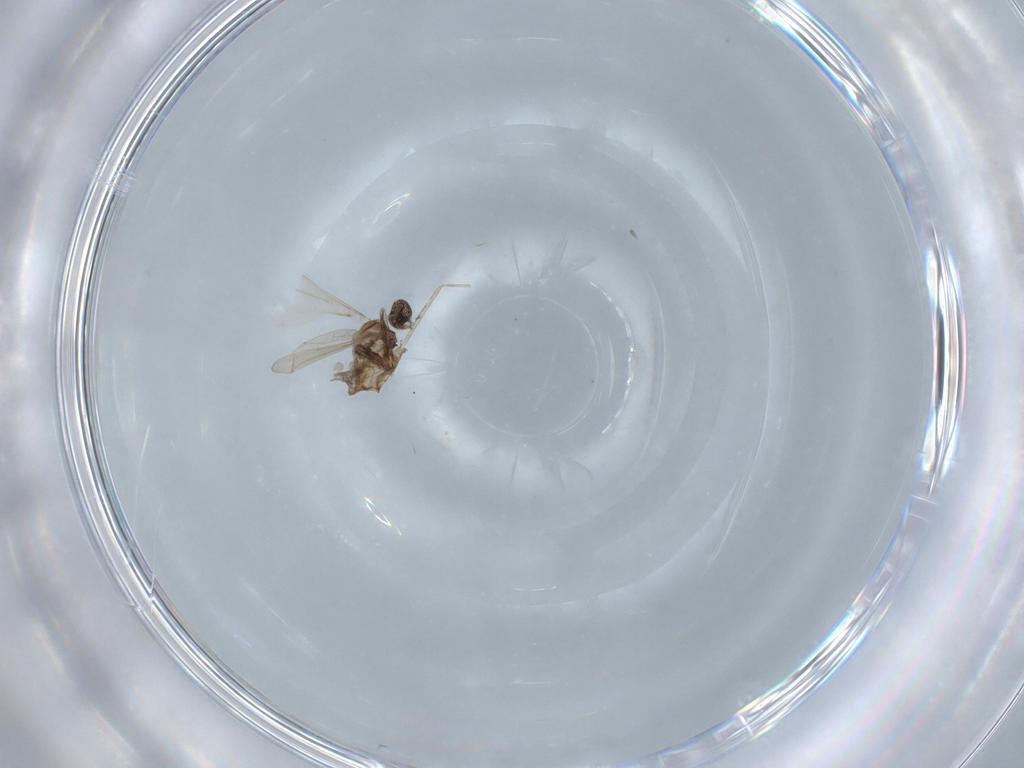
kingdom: Animalia
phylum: Arthropoda
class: Insecta
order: Diptera
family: Cecidomyiidae
